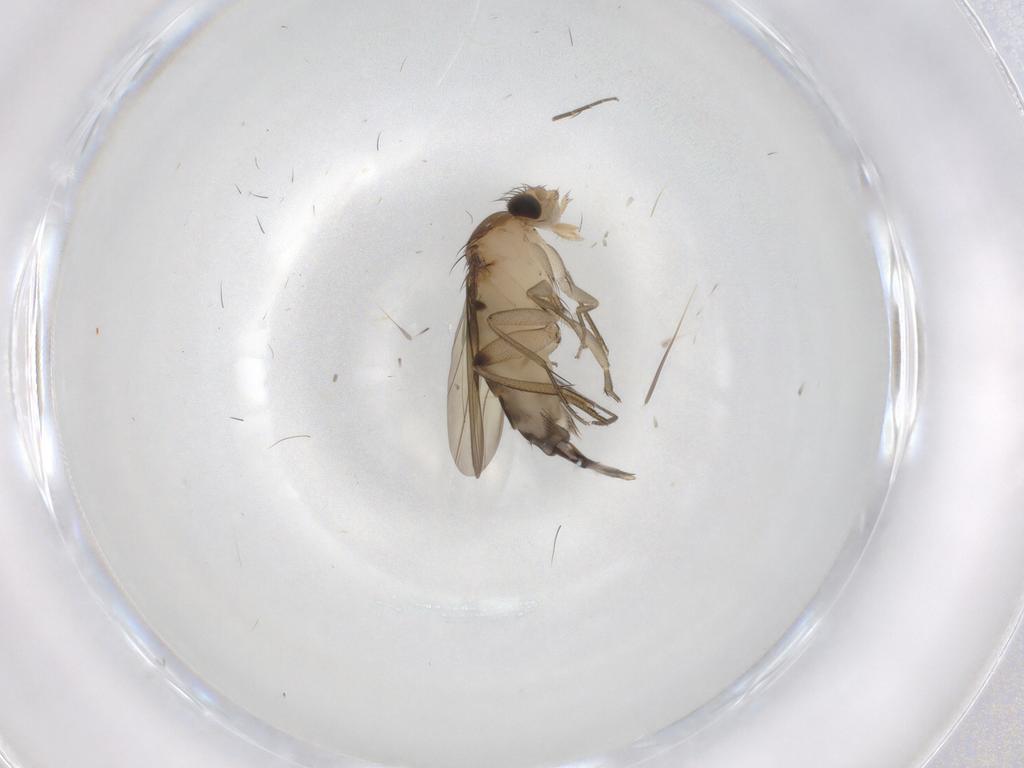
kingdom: Animalia
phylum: Arthropoda
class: Insecta
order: Diptera
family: Phoridae
